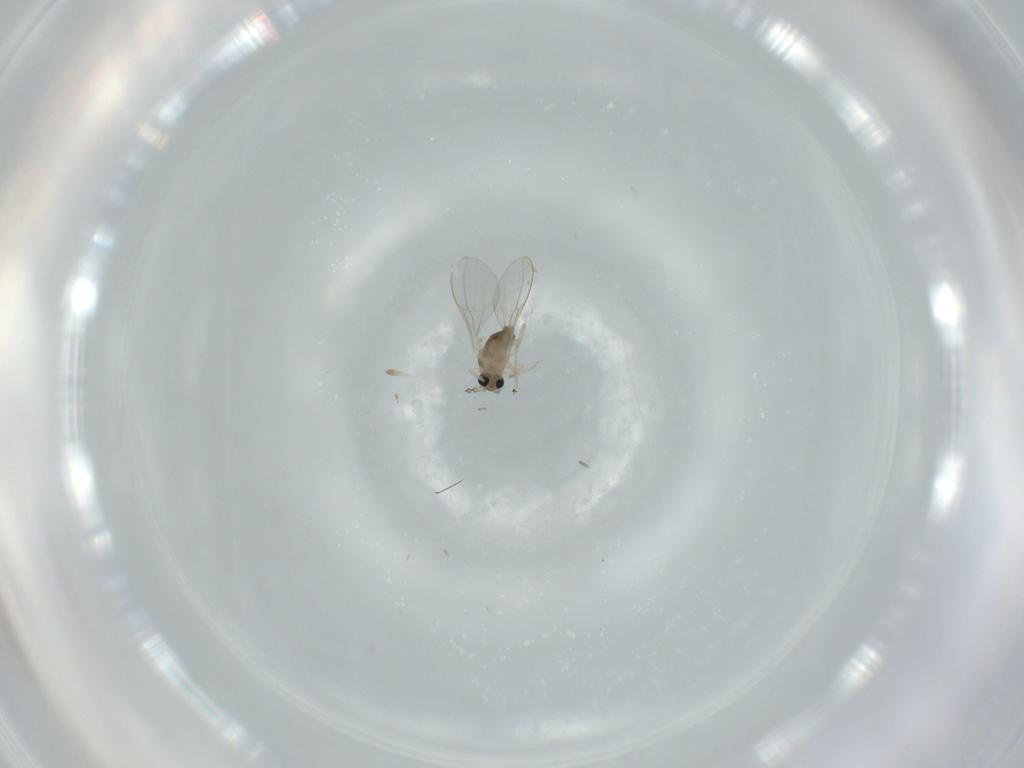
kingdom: Animalia
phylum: Arthropoda
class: Insecta
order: Diptera
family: Cecidomyiidae
